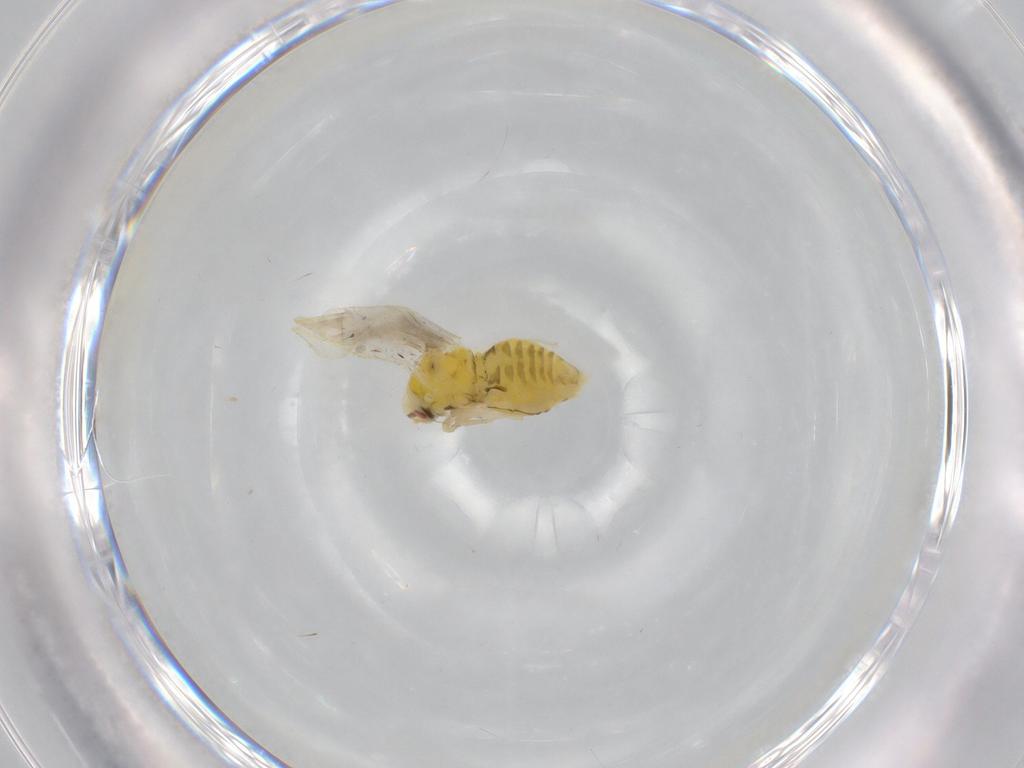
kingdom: Animalia
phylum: Arthropoda
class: Insecta
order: Hemiptera
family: Aleyrodidae
